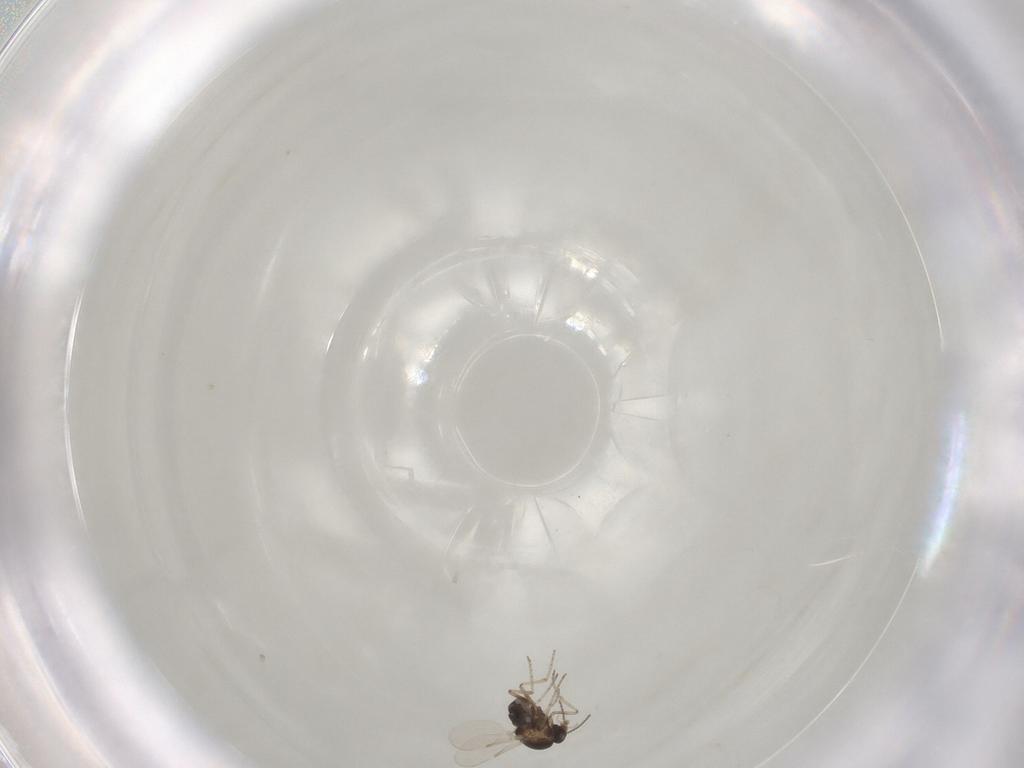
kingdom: Animalia
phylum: Arthropoda
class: Insecta
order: Diptera
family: Ceratopogonidae
